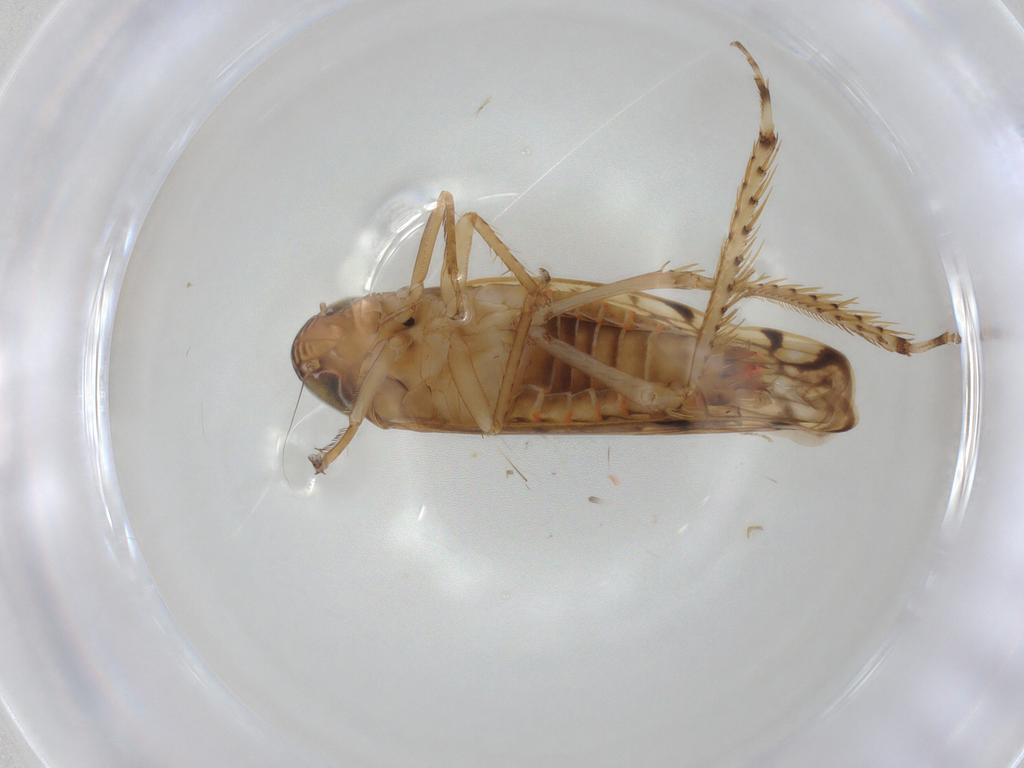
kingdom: Animalia
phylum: Arthropoda
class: Insecta
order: Hemiptera
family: Cicadellidae
